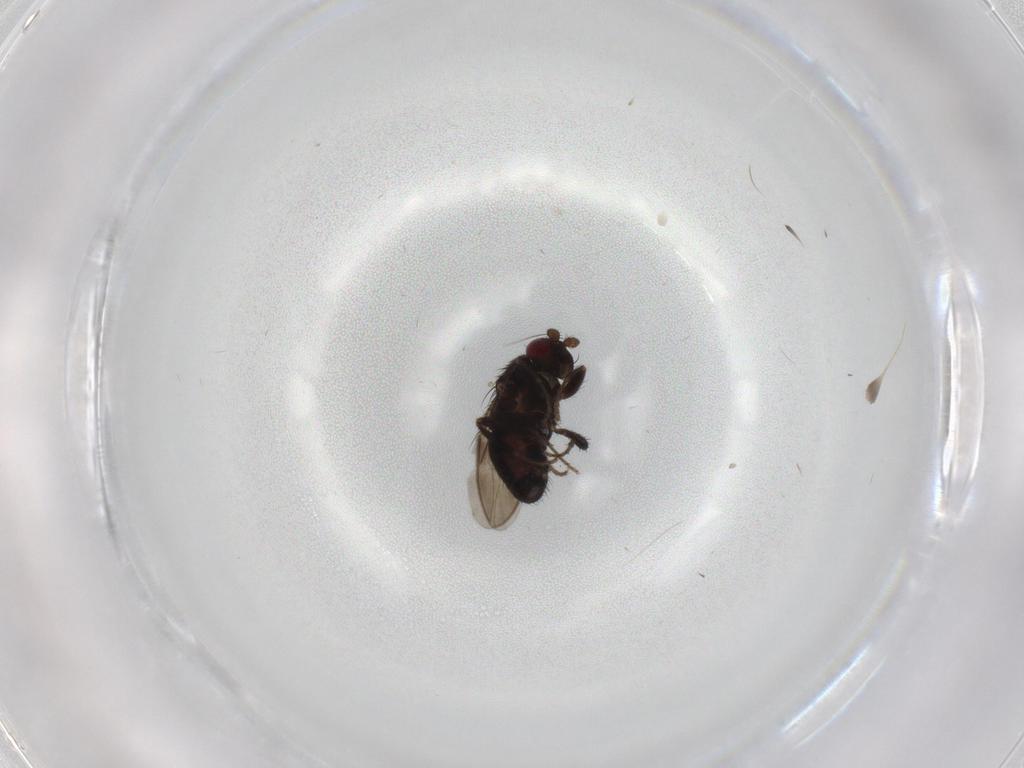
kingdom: Animalia
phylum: Arthropoda
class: Insecta
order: Diptera
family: Sphaeroceridae
